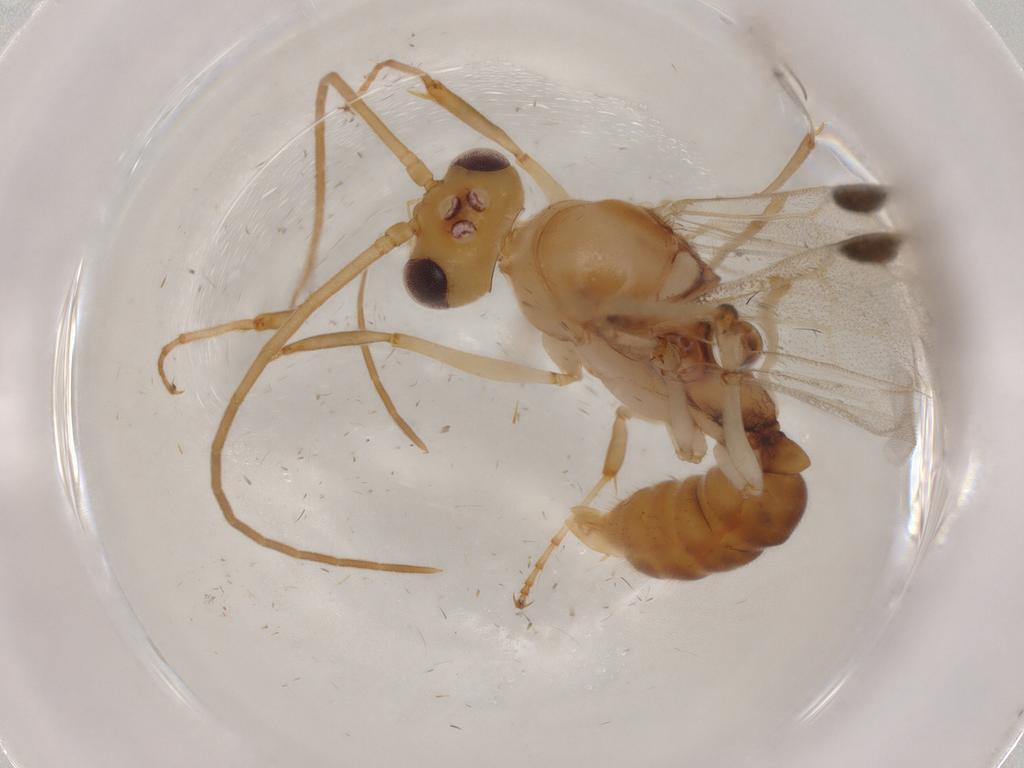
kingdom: Animalia
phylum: Arthropoda
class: Insecta
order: Hymenoptera
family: Formicidae
